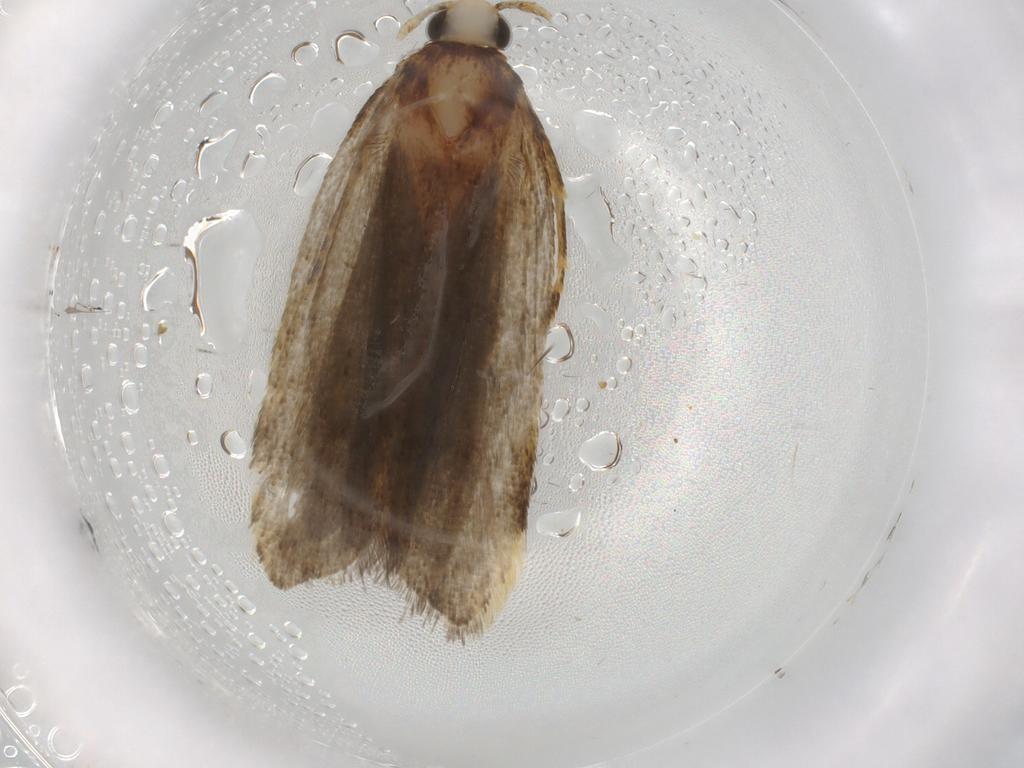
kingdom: Animalia
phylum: Arthropoda
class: Insecta
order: Lepidoptera
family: Autostichidae
